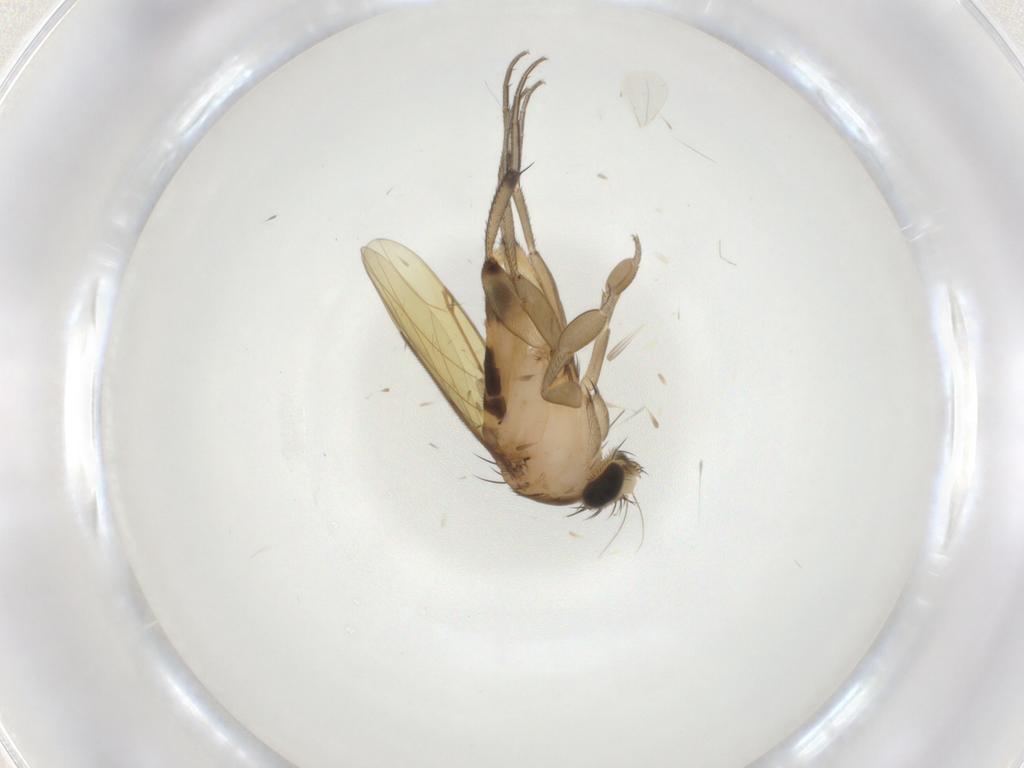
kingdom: Animalia
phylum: Arthropoda
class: Insecta
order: Diptera
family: Phoridae
